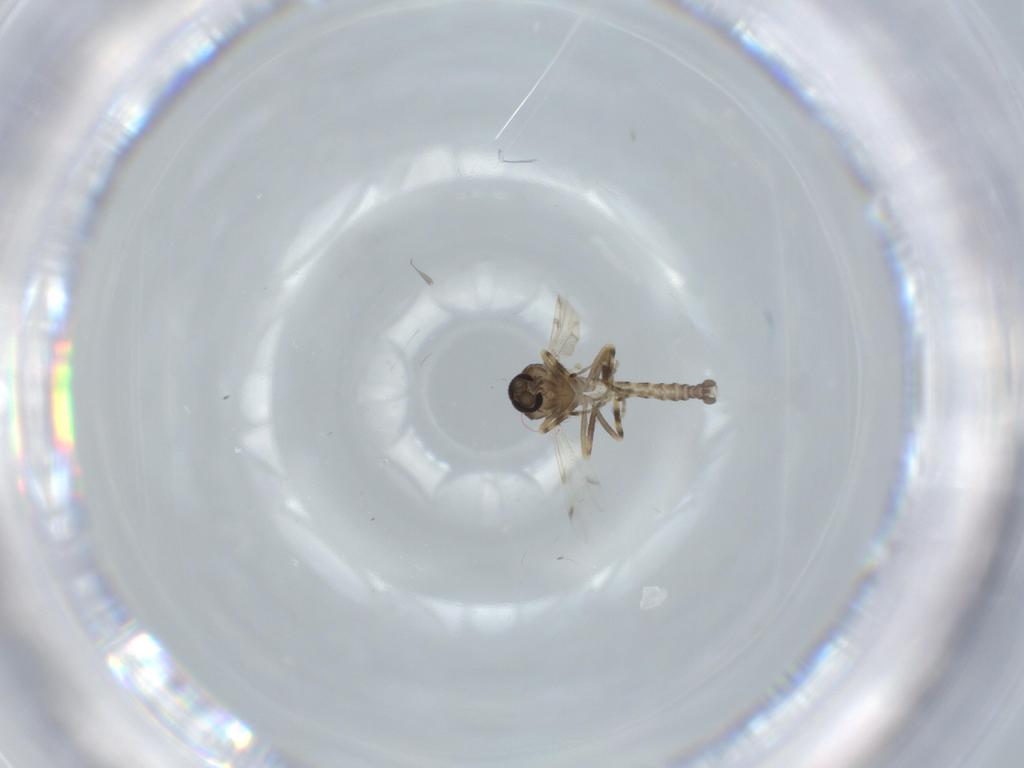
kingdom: Animalia
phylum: Arthropoda
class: Insecta
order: Diptera
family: Ceratopogonidae
